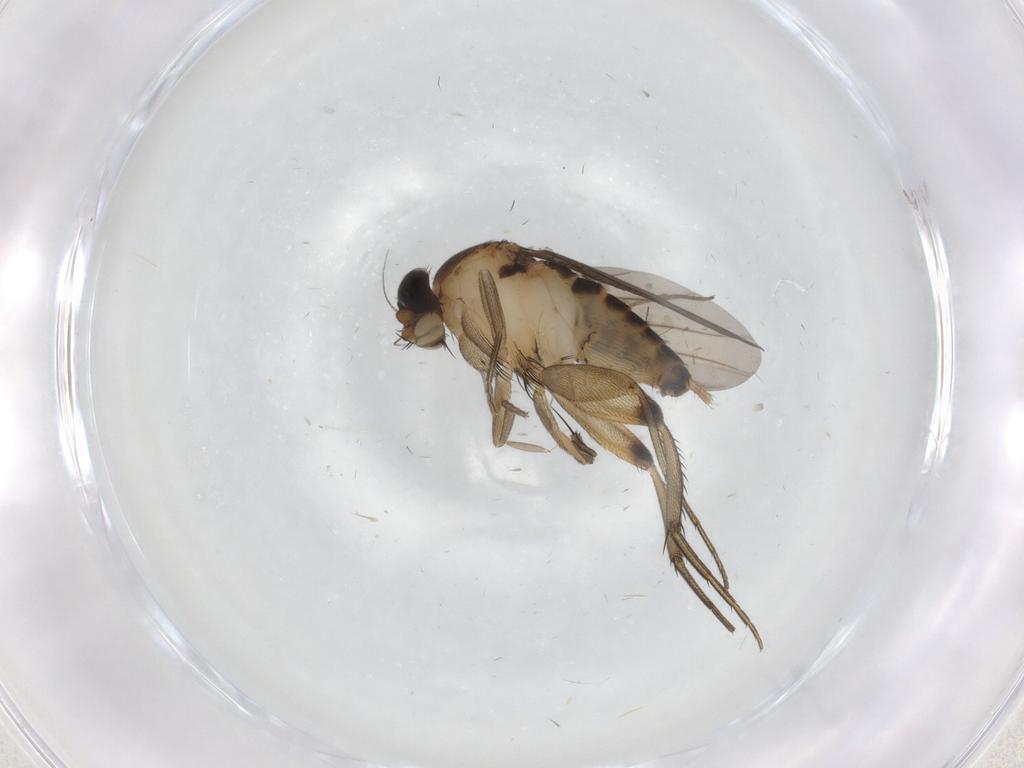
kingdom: Animalia
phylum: Arthropoda
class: Insecta
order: Diptera
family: Phoridae
